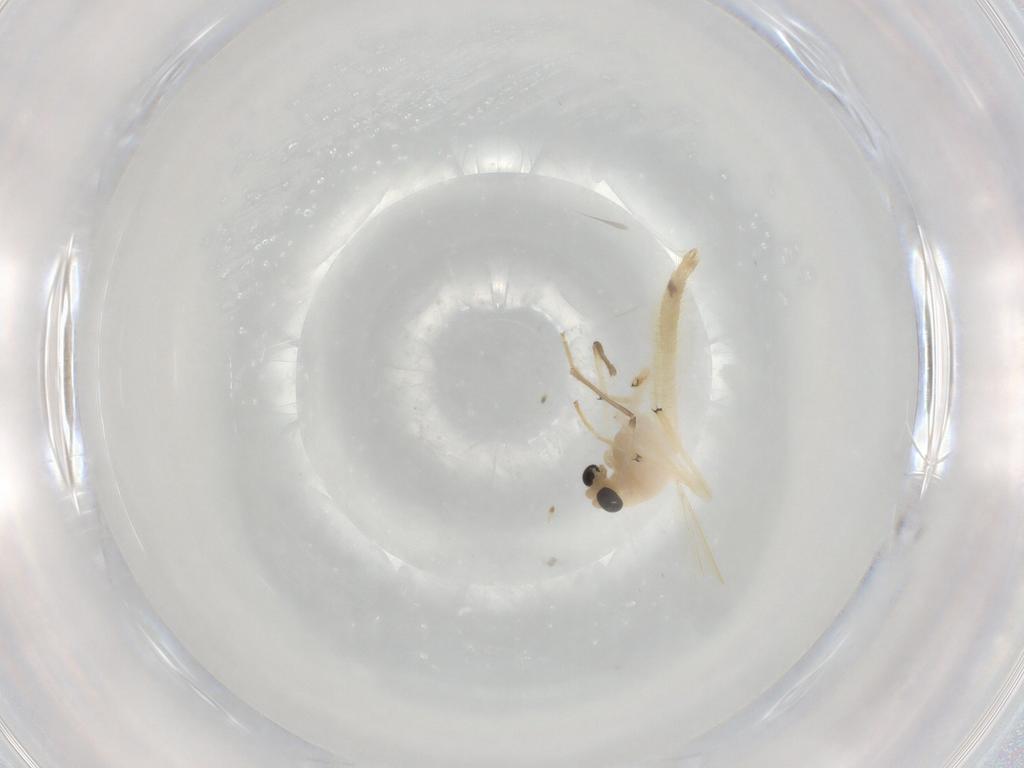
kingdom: Animalia
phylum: Arthropoda
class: Insecta
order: Diptera
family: Chironomidae
